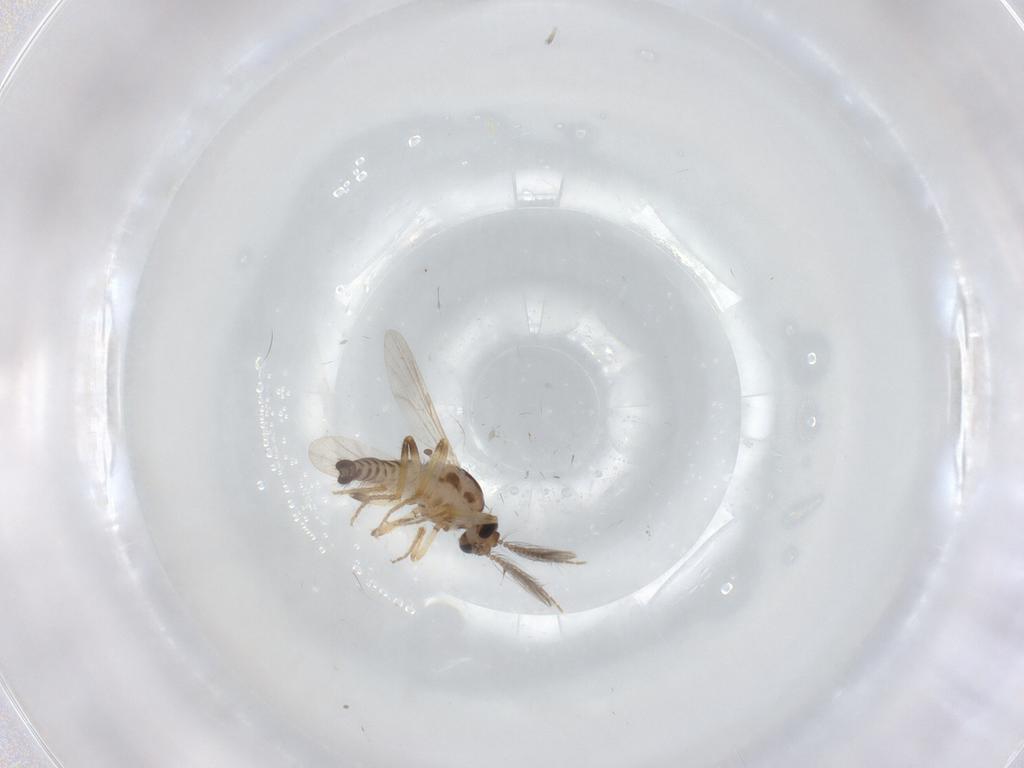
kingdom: Animalia
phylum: Arthropoda
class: Insecta
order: Diptera
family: Ceratopogonidae
